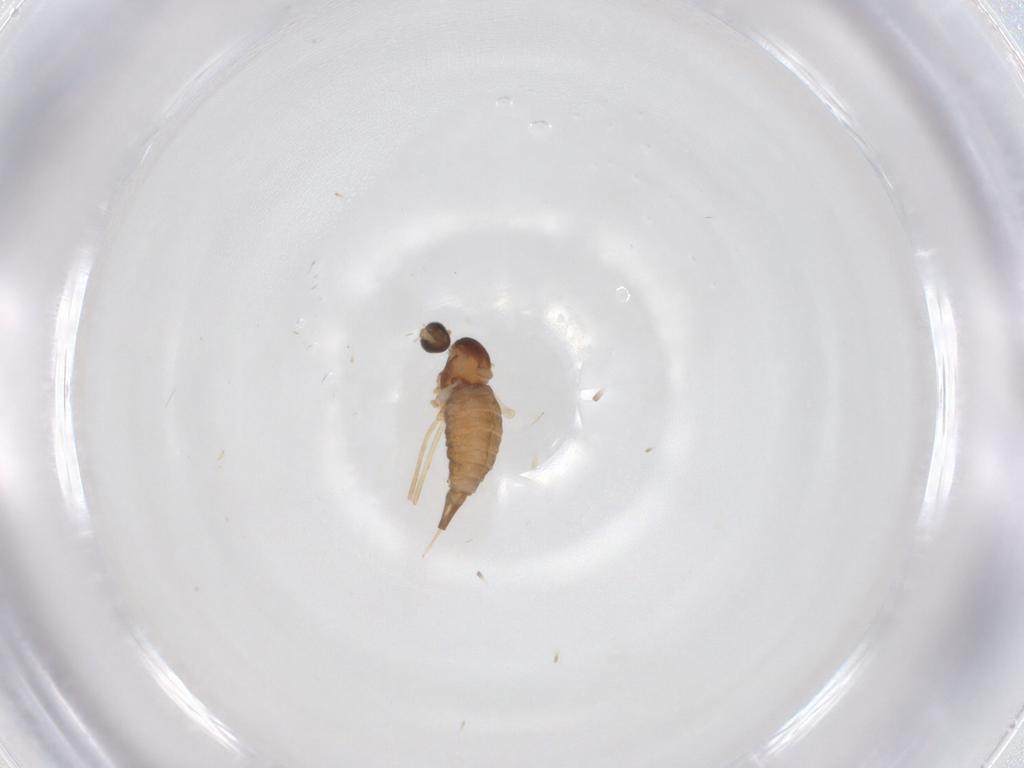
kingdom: Animalia
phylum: Arthropoda
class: Insecta
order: Diptera
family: Cecidomyiidae
